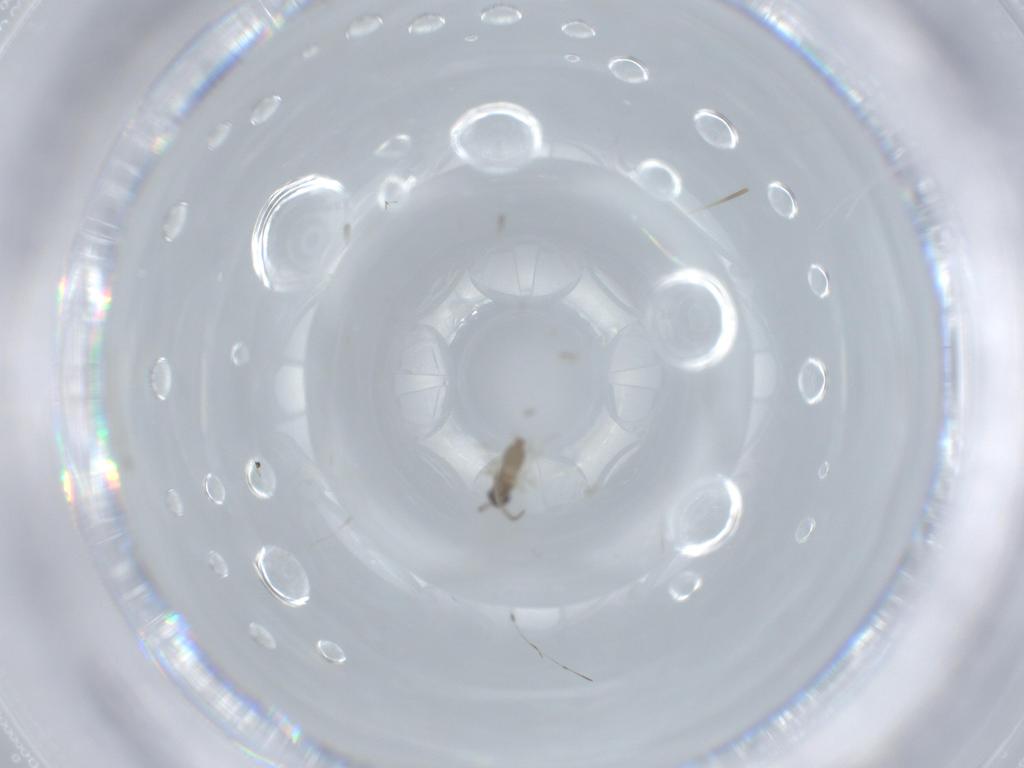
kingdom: Animalia
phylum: Arthropoda
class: Insecta
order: Diptera
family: Cecidomyiidae
